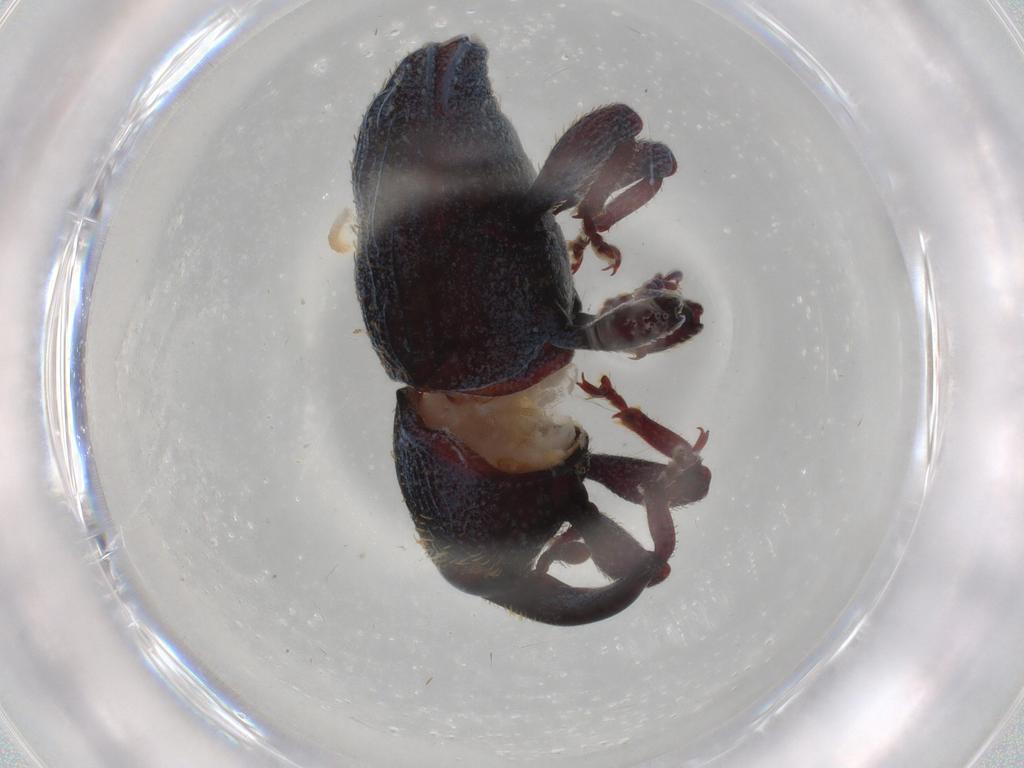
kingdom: Animalia
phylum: Arthropoda
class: Insecta
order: Coleoptera
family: Curculionidae
